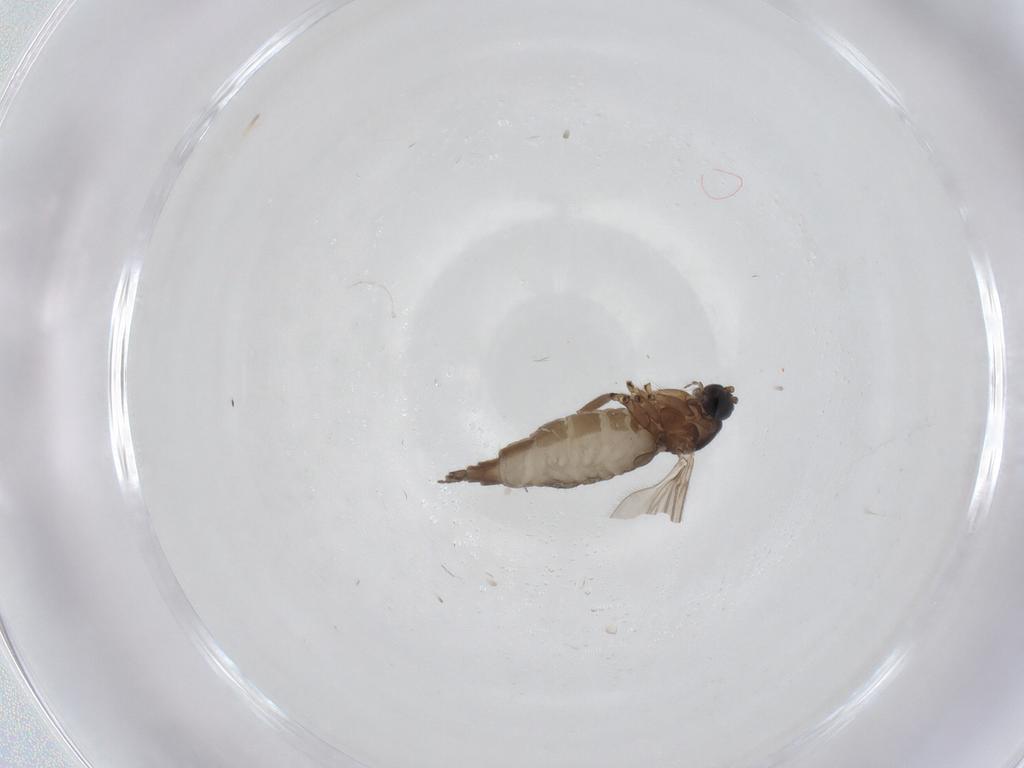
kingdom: Animalia
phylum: Arthropoda
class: Insecta
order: Diptera
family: Sciaridae
